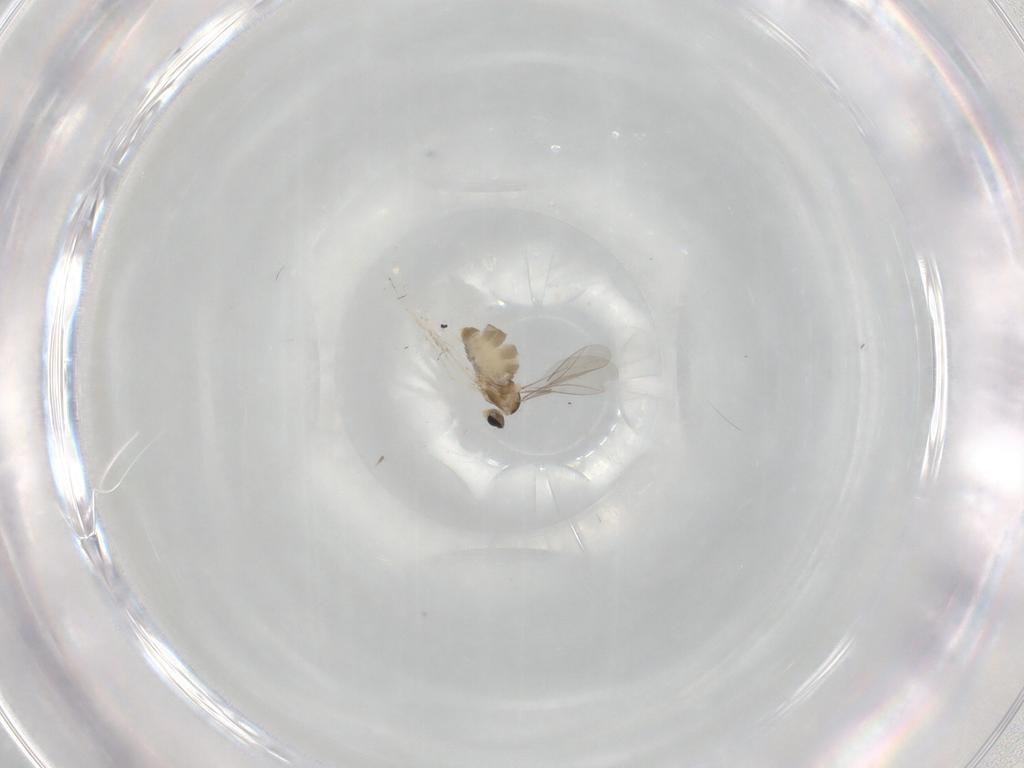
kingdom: Animalia
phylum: Arthropoda
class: Insecta
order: Diptera
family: Cecidomyiidae
